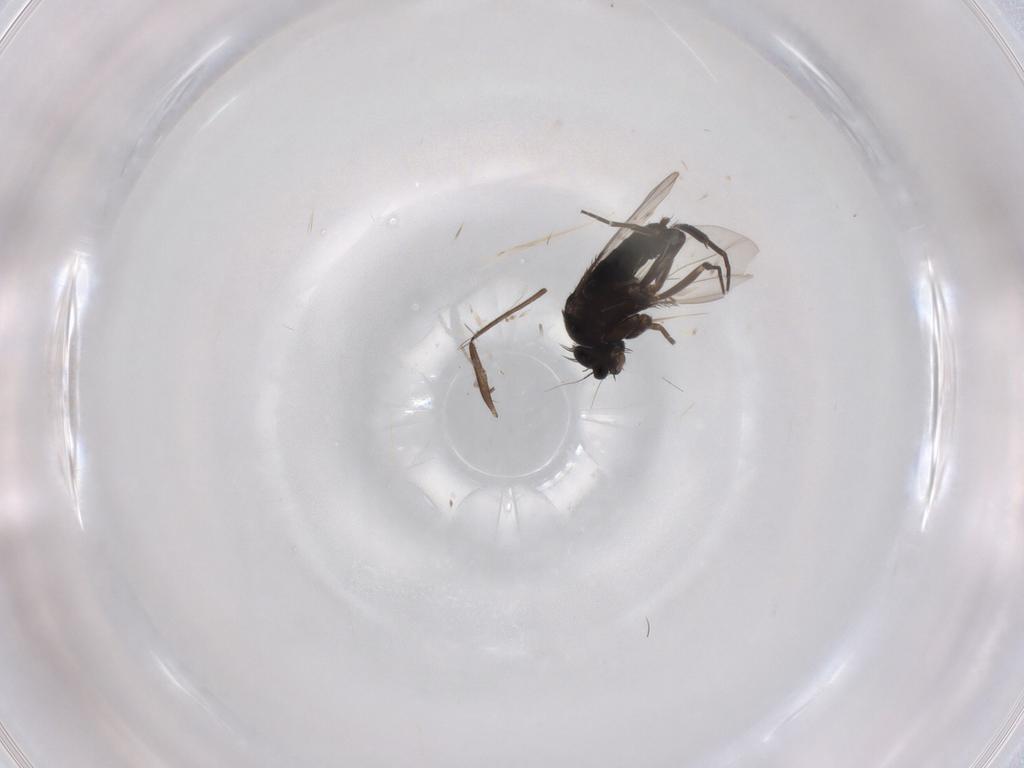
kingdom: Animalia
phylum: Arthropoda
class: Insecta
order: Diptera
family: Phoridae
